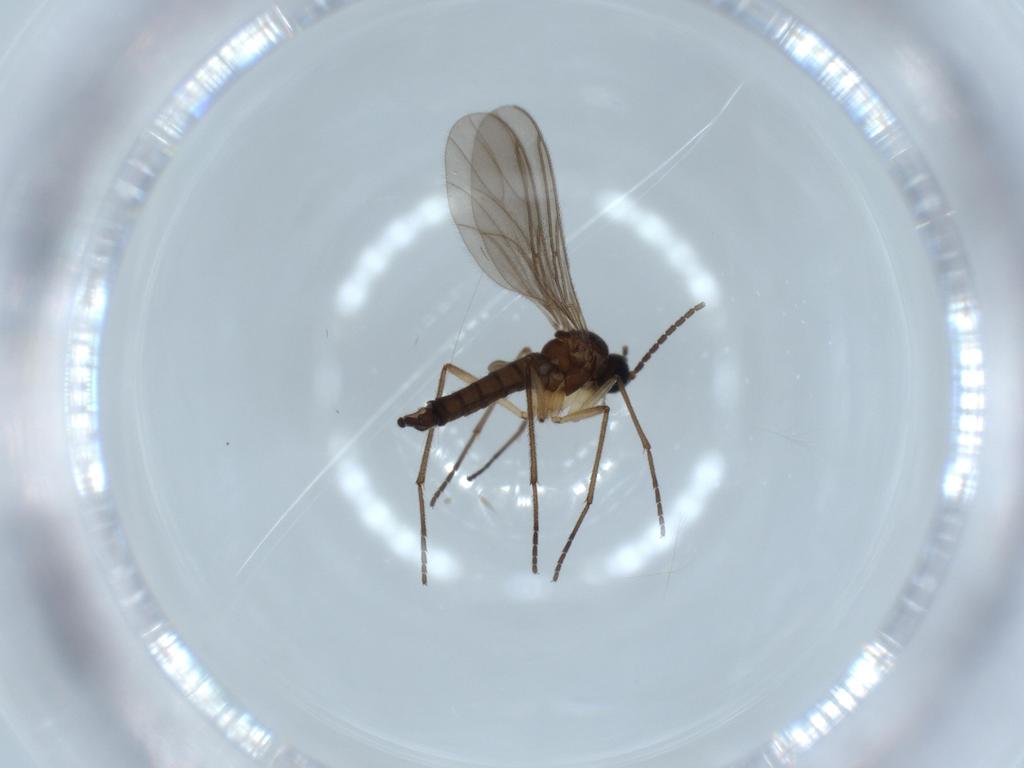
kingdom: Animalia
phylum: Arthropoda
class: Insecta
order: Diptera
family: Sciaridae
